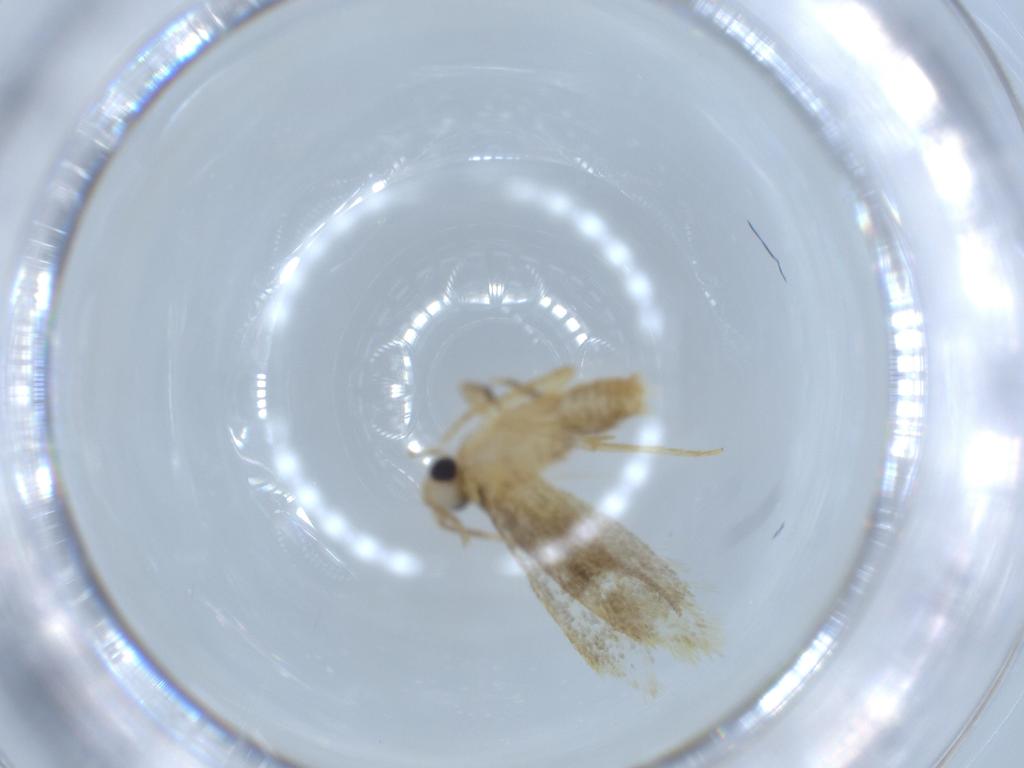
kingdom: Animalia
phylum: Arthropoda
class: Insecta
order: Lepidoptera
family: Tineidae
